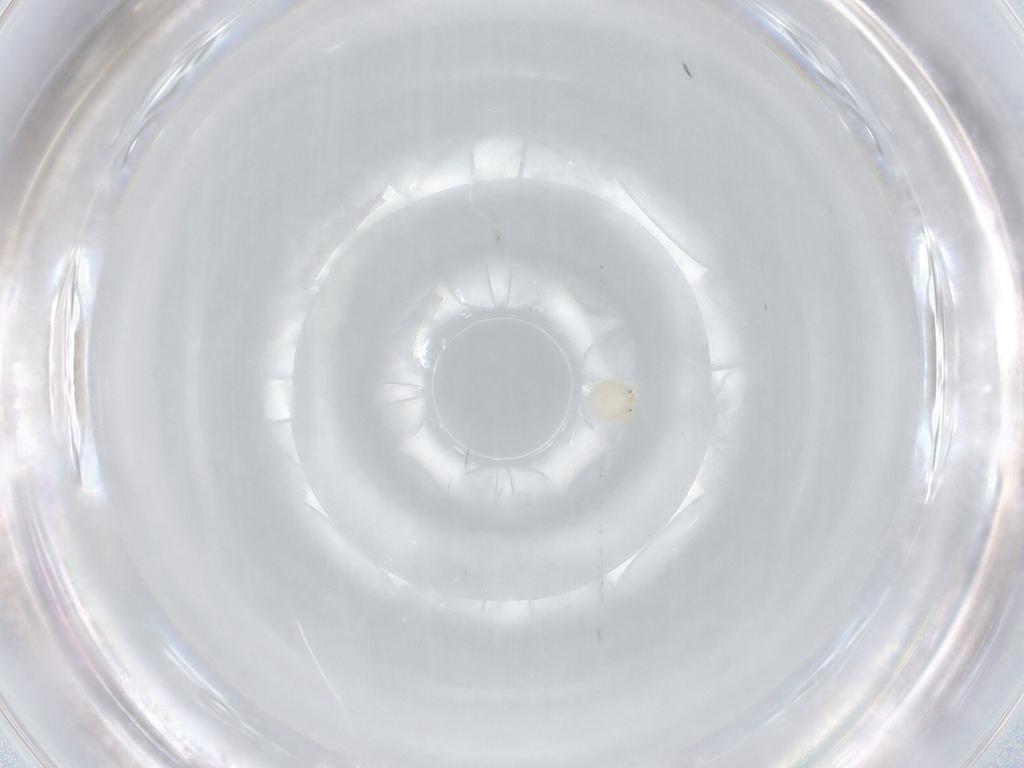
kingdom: Animalia
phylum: Arthropoda
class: Arachnida
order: Trombidiformes
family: Arrenuridae
